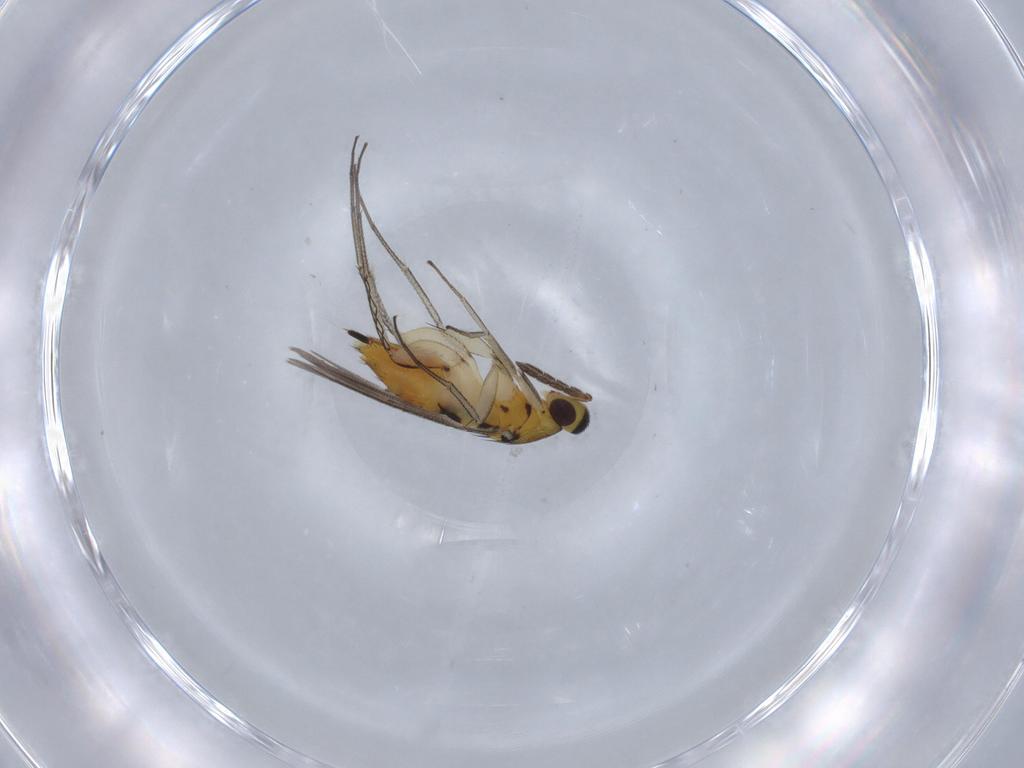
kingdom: Animalia
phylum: Arthropoda
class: Insecta
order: Hymenoptera
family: Eulophidae
